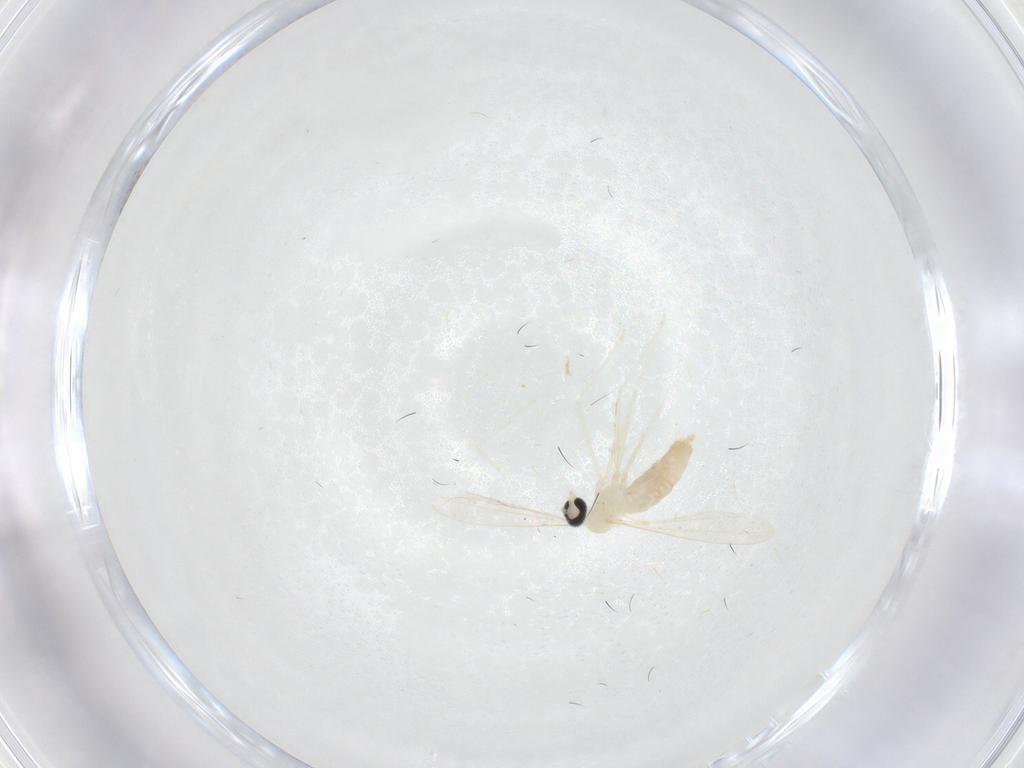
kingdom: Animalia
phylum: Arthropoda
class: Insecta
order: Diptera
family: Chironomidae
